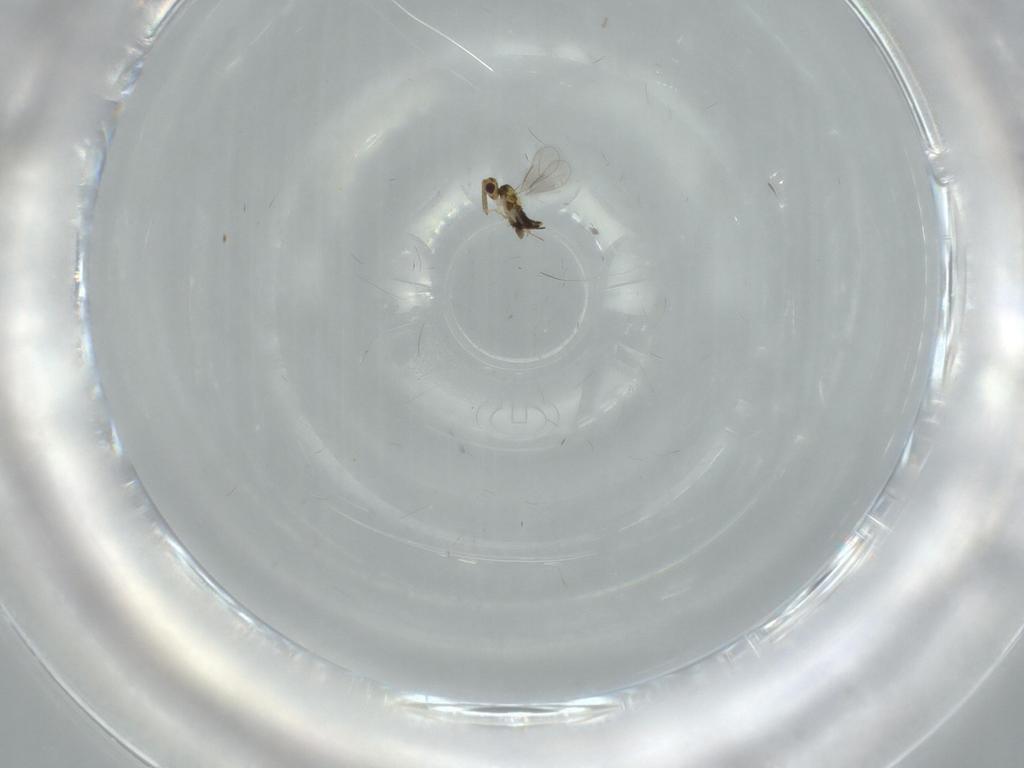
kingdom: Animalia
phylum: Arthropoda
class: Insecta
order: Hymenoptera
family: Aphelinidae
